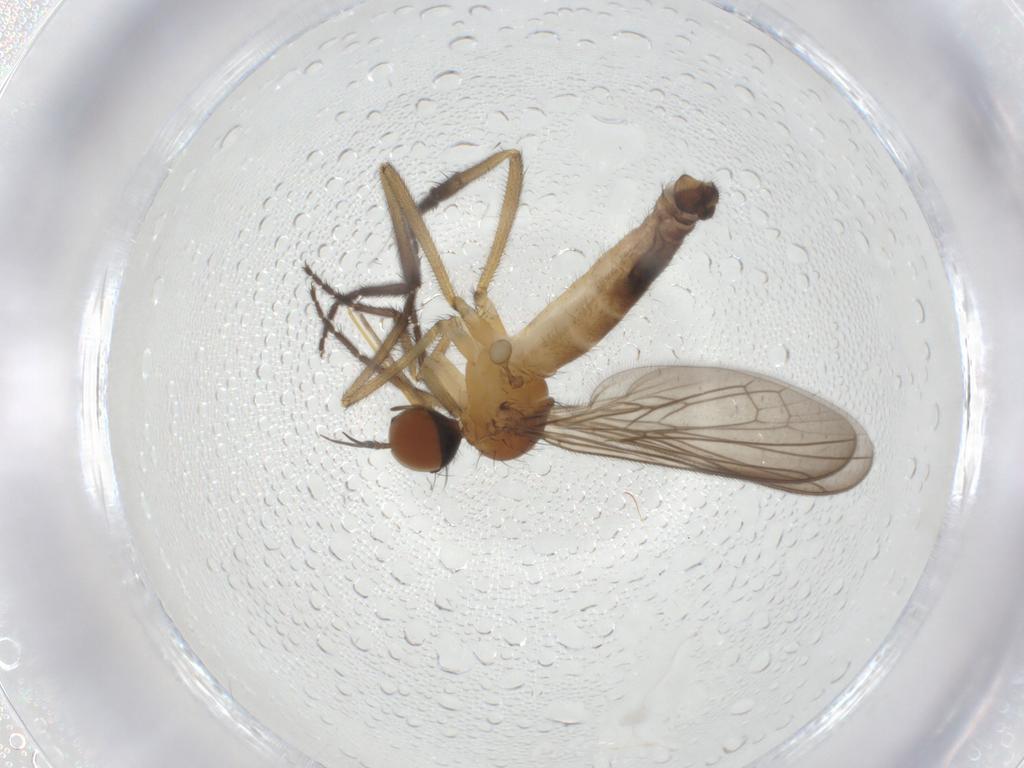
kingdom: Animalia
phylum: Arthropoda
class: Insecta
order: Diptera
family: Empididae
